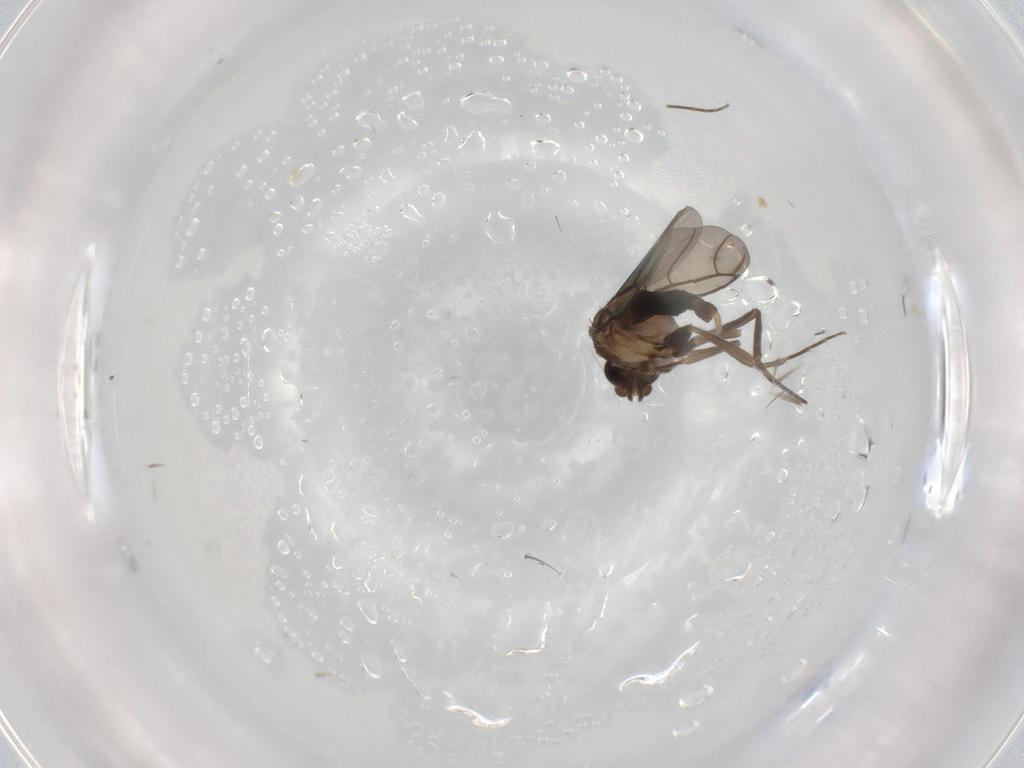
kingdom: Animalia
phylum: Arthropoda
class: Insecta
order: Diptera
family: Phoridae
